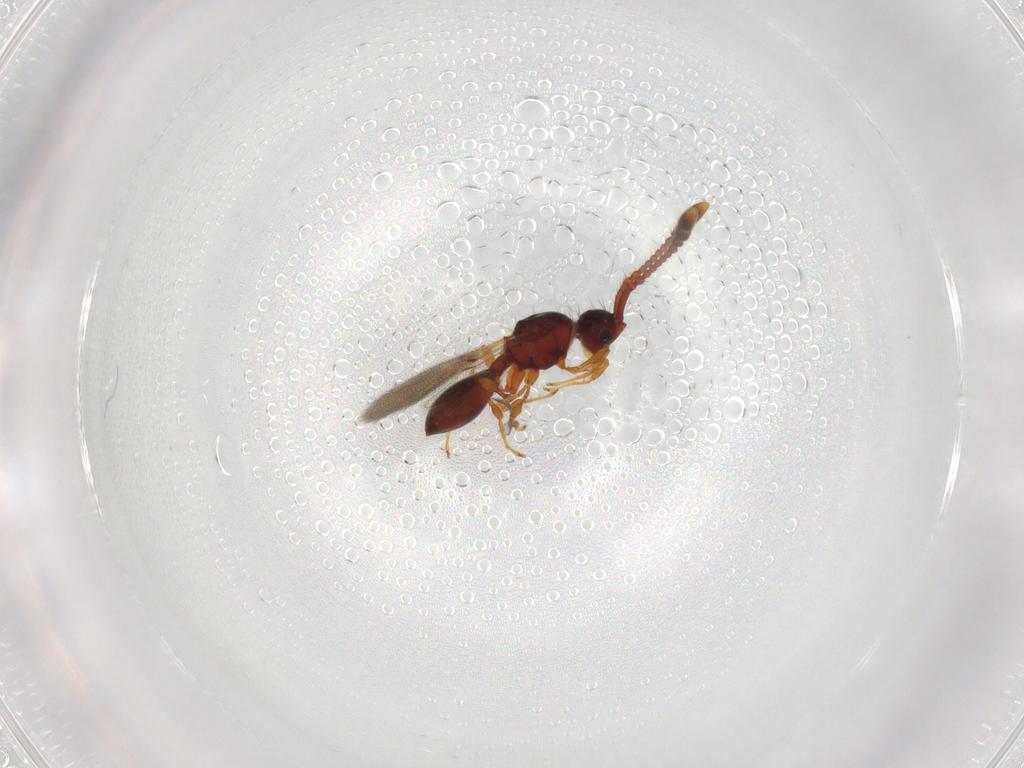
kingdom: Animalia
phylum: Arthropoda
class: Insecta
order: Hymenoptera
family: Diapriidae
